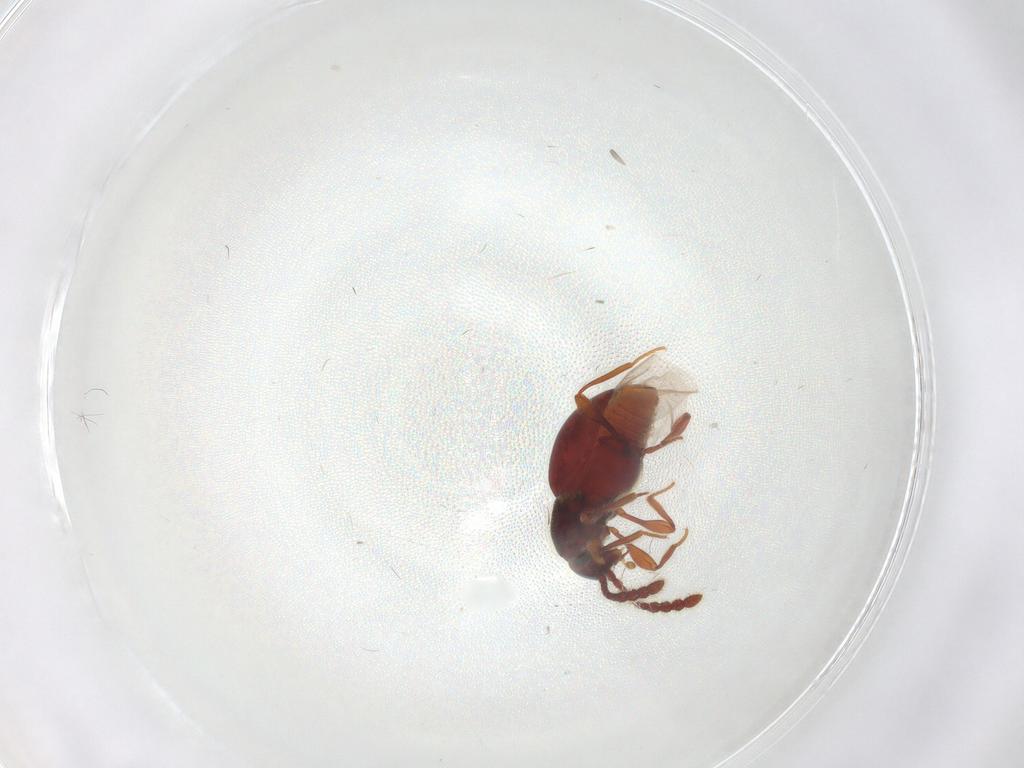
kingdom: Animalia
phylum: Arthropoda
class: Insecta
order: Coleoptera
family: Staphylinidae
